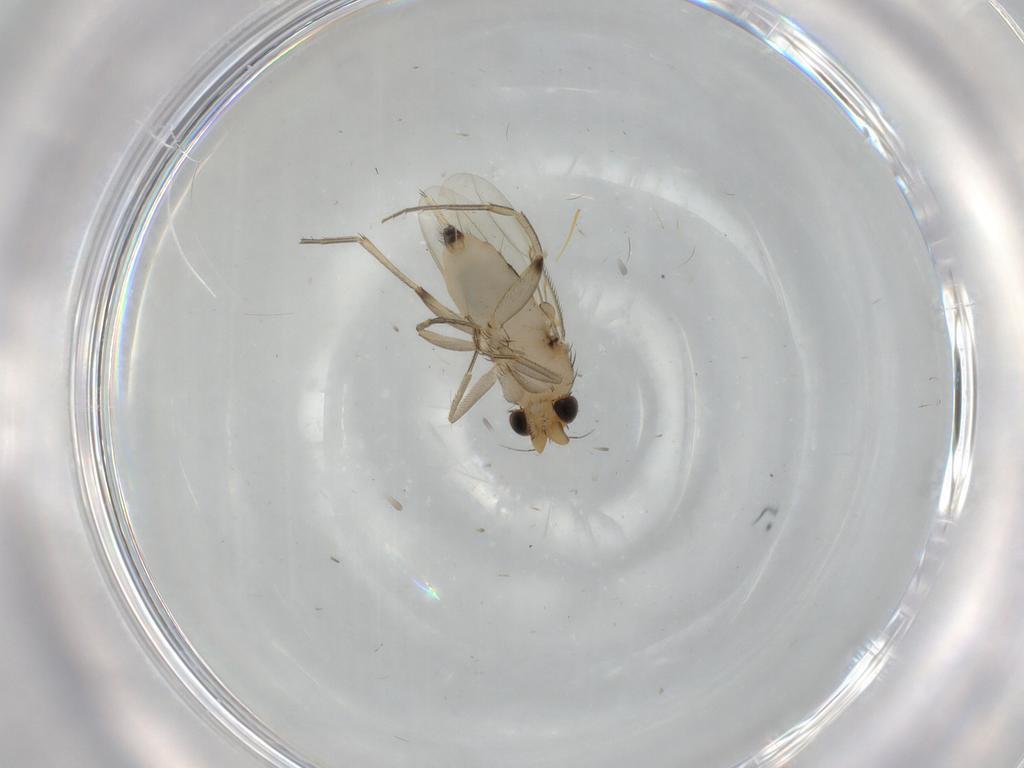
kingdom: Animalia
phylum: Arthropoda
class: Insecta
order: Diptera
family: Phoridae
